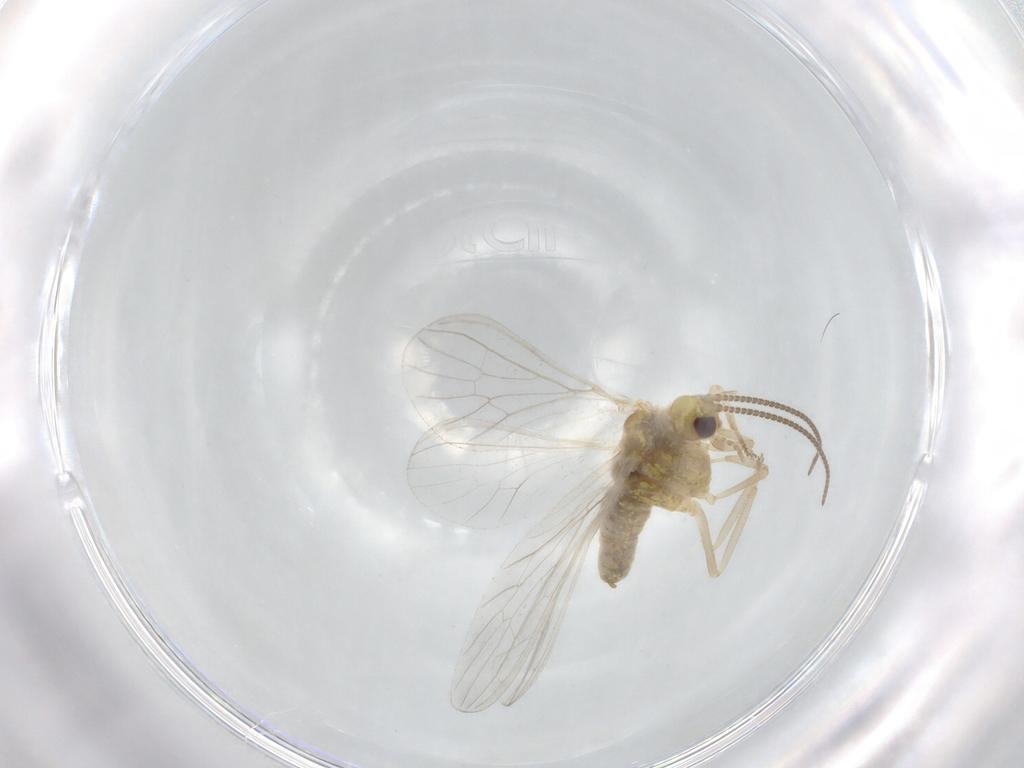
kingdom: Animalia
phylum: Arthropoda
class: Insecta
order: Neuroptera
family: Coniopterygidae
